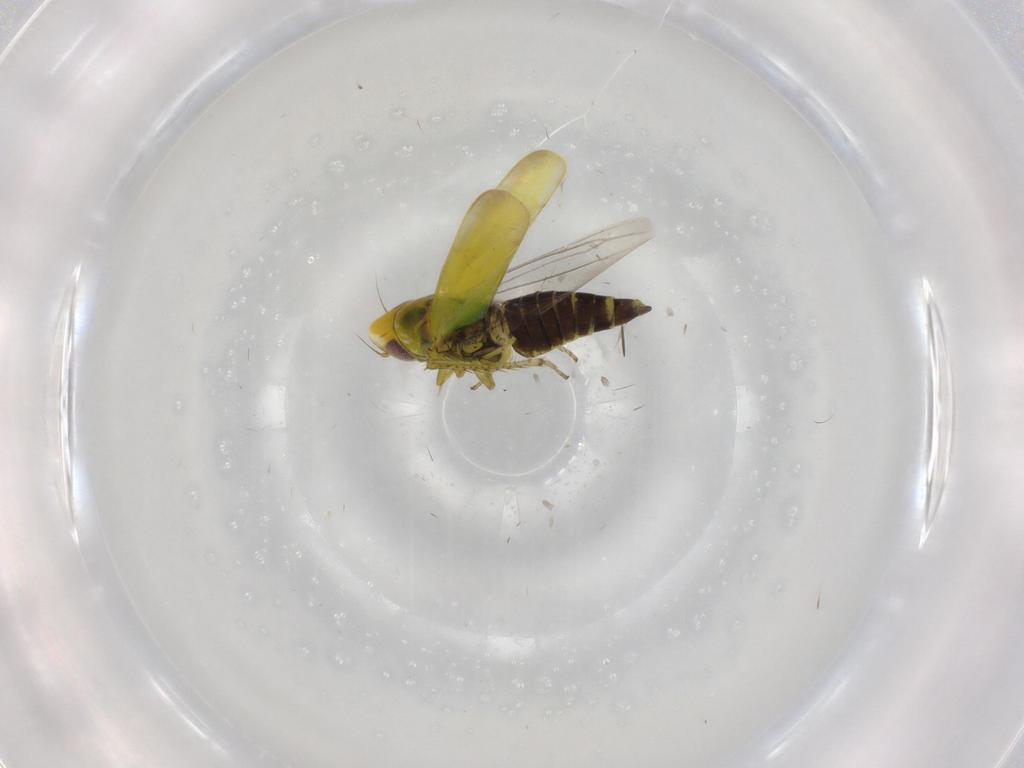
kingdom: Animalia
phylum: Arthropoda
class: Insecta
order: Hemiptera
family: Cicadellidae
